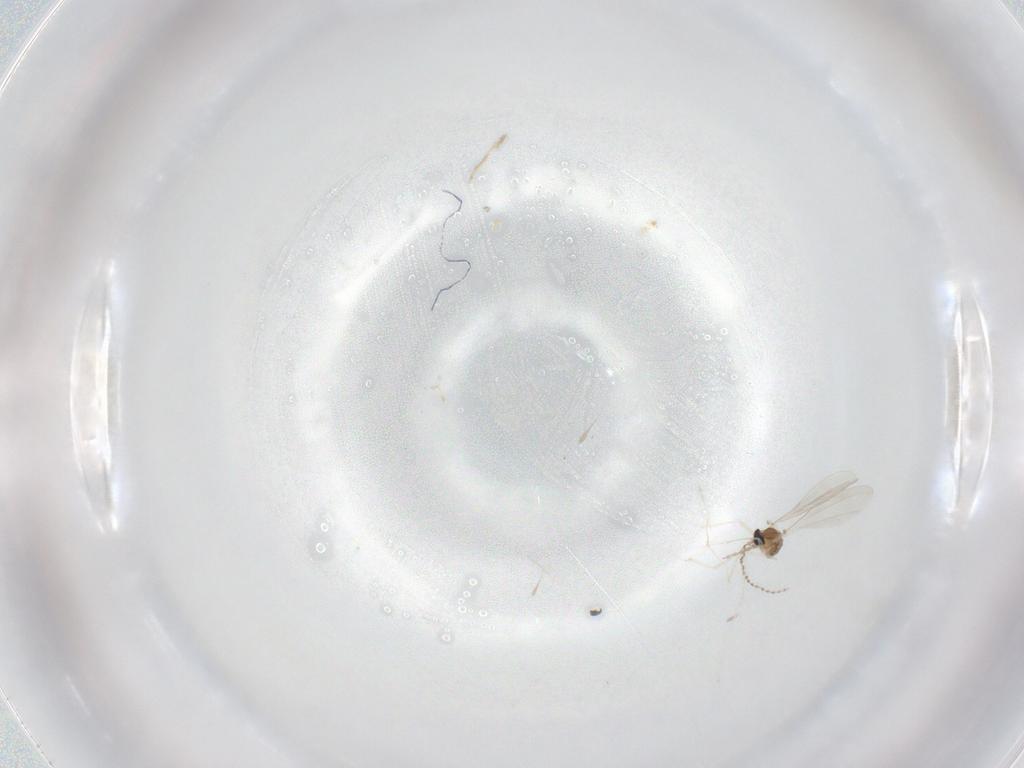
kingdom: Animalia
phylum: Arthropoda
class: Insecta
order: Diptera
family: Cecidomyiidae
